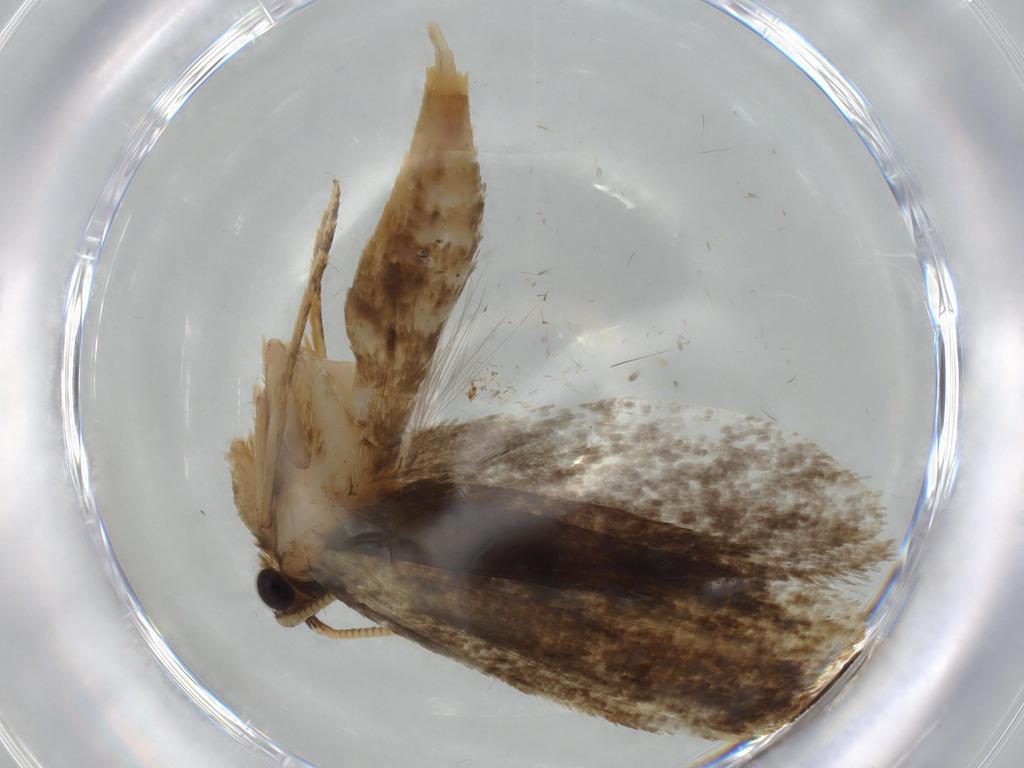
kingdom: Animalia
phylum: Arthropoda
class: Insecta
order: Lepidoptera
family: Tineidae
